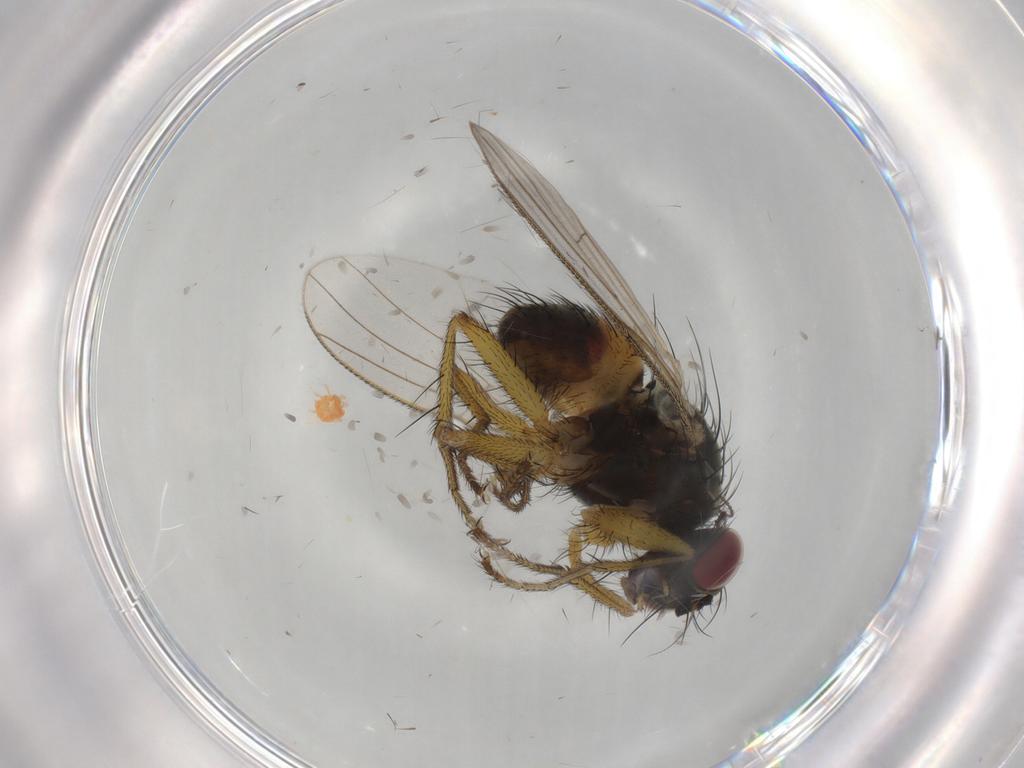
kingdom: Animalia
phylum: Arthropoda
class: Insecta
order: Diptera
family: Muscidae
